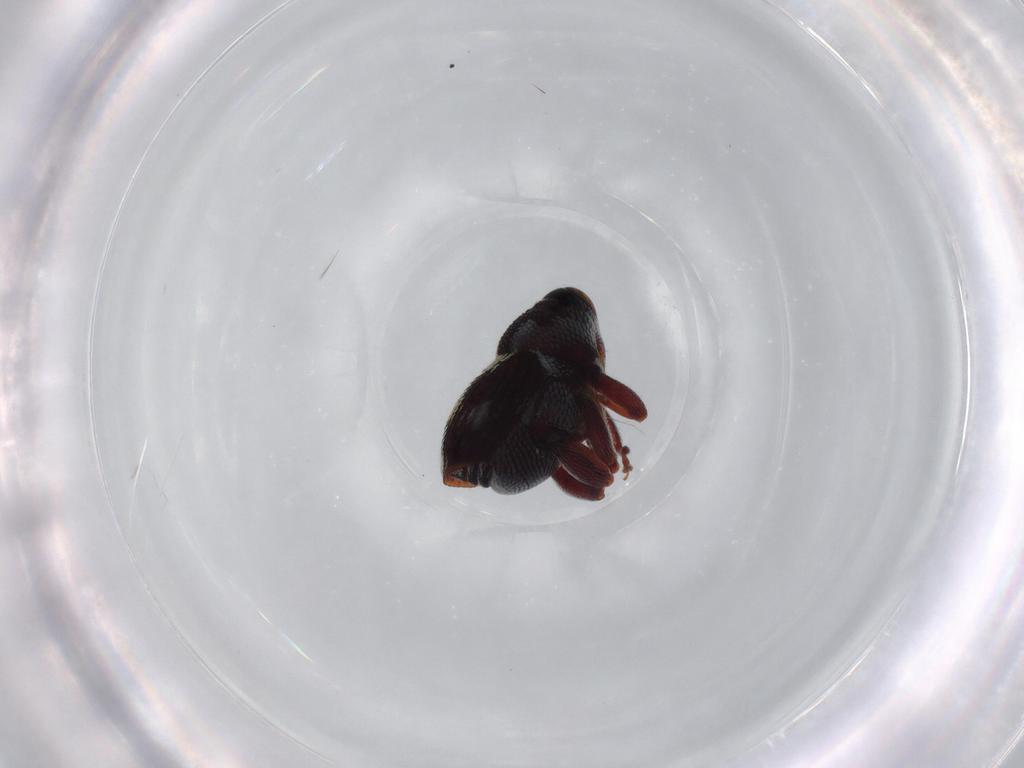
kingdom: Animalia
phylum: Arthropoda
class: Insecta
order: Coleoptera
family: Curculionidae
